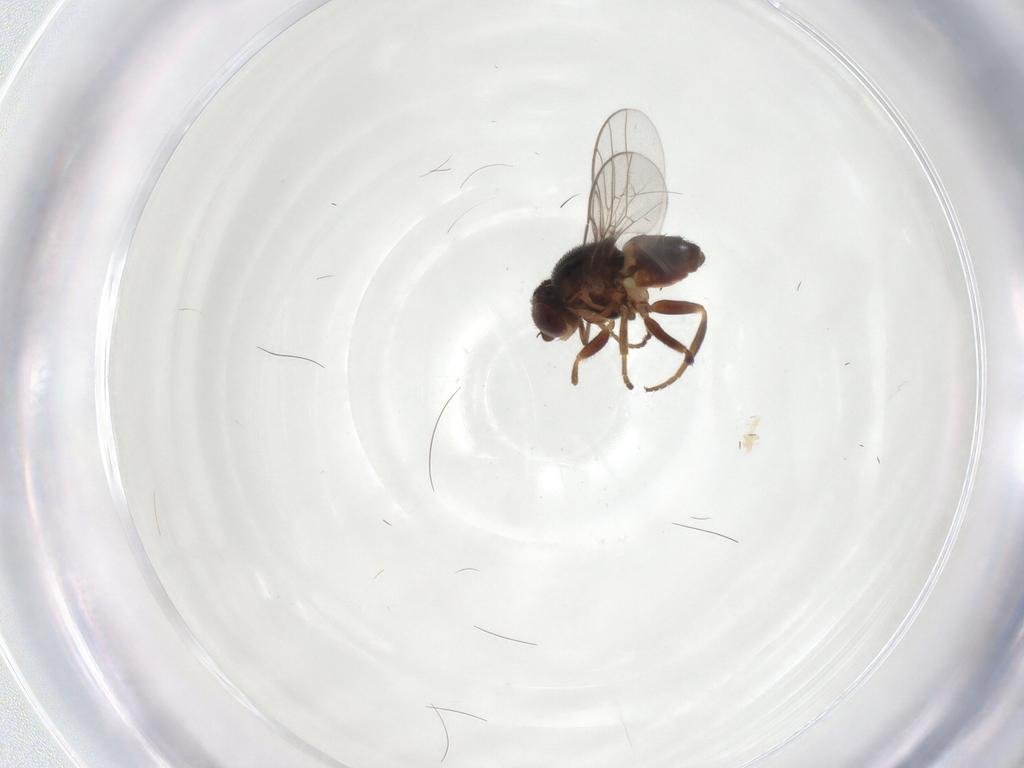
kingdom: Animalia
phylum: Arthropoda
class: Insecta
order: Diptera
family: Chloropidae
